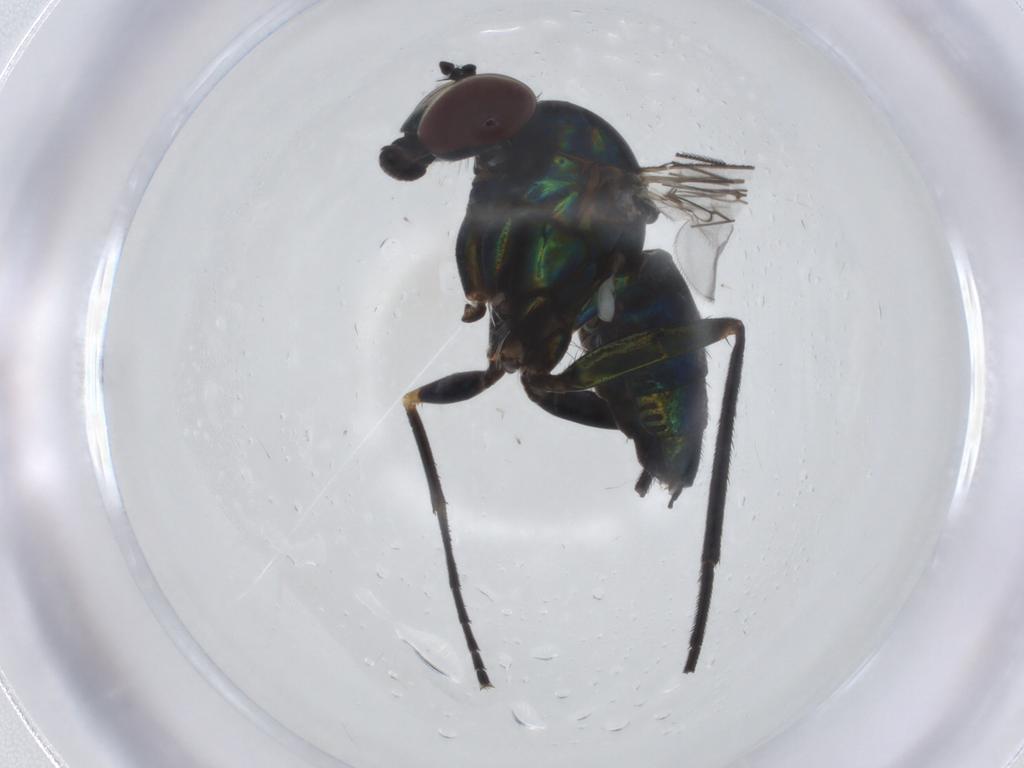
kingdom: Animalia
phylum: Arthropoda
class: Insecta
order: Diptera
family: Dolichopodidae
